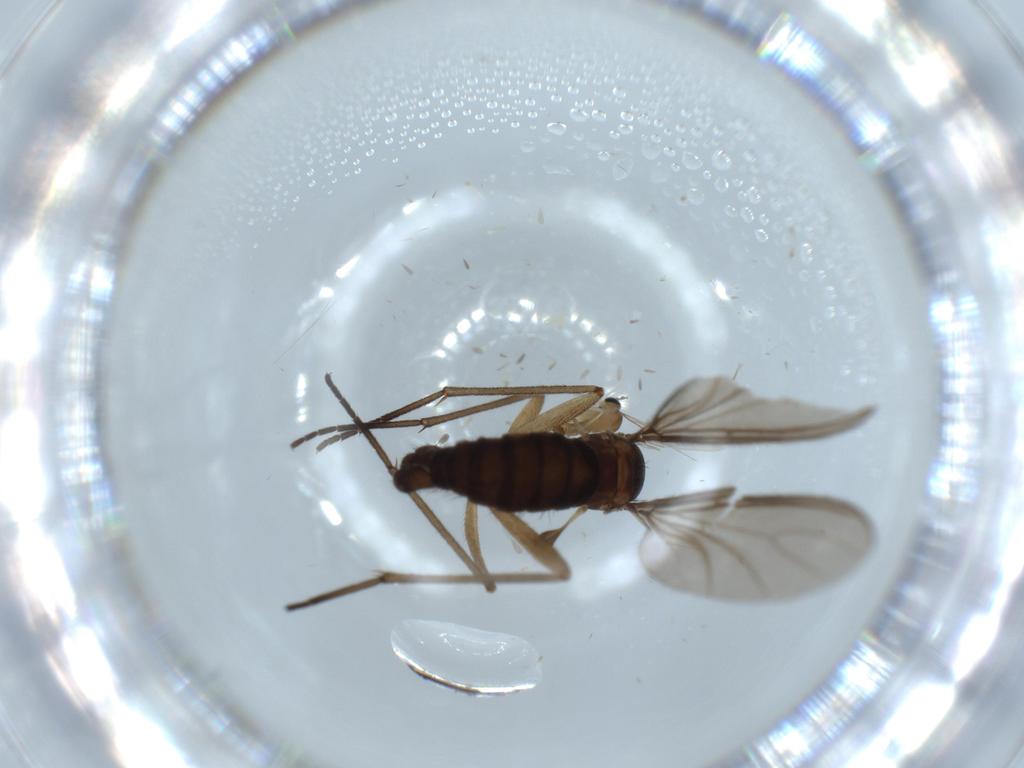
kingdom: Animalia
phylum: Arthropoda
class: Insecta
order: Diptera
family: Sciaridae
